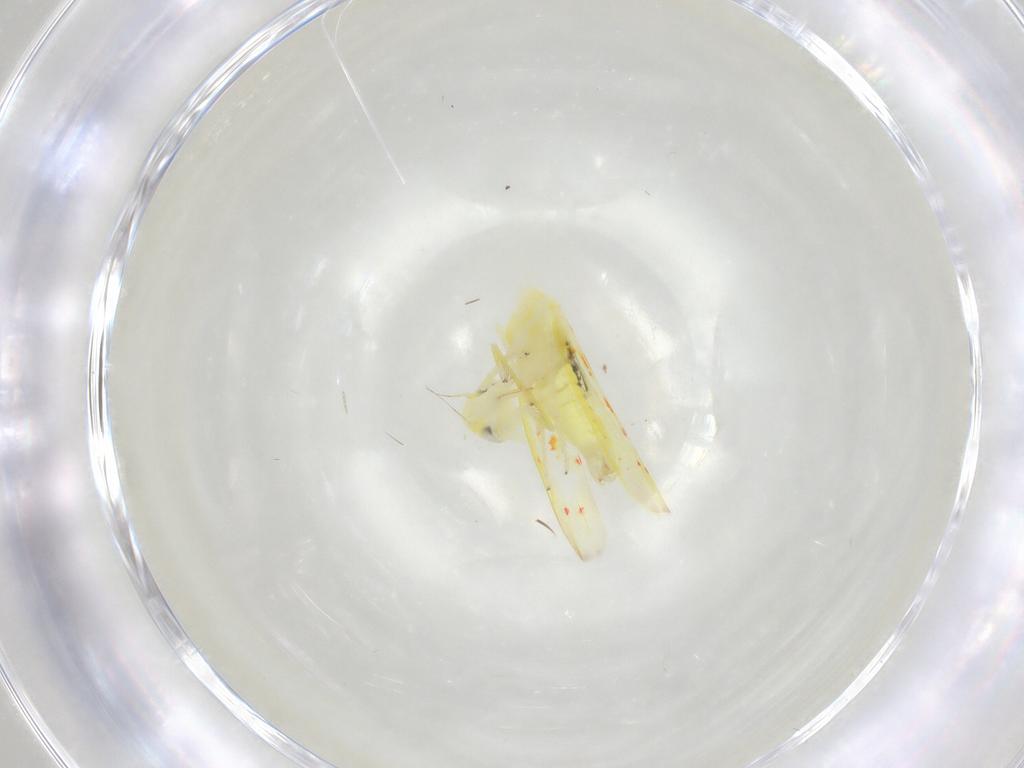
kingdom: Animalia
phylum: Arthropoda
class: Insecta
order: Hemiptera
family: Cicadellidae
